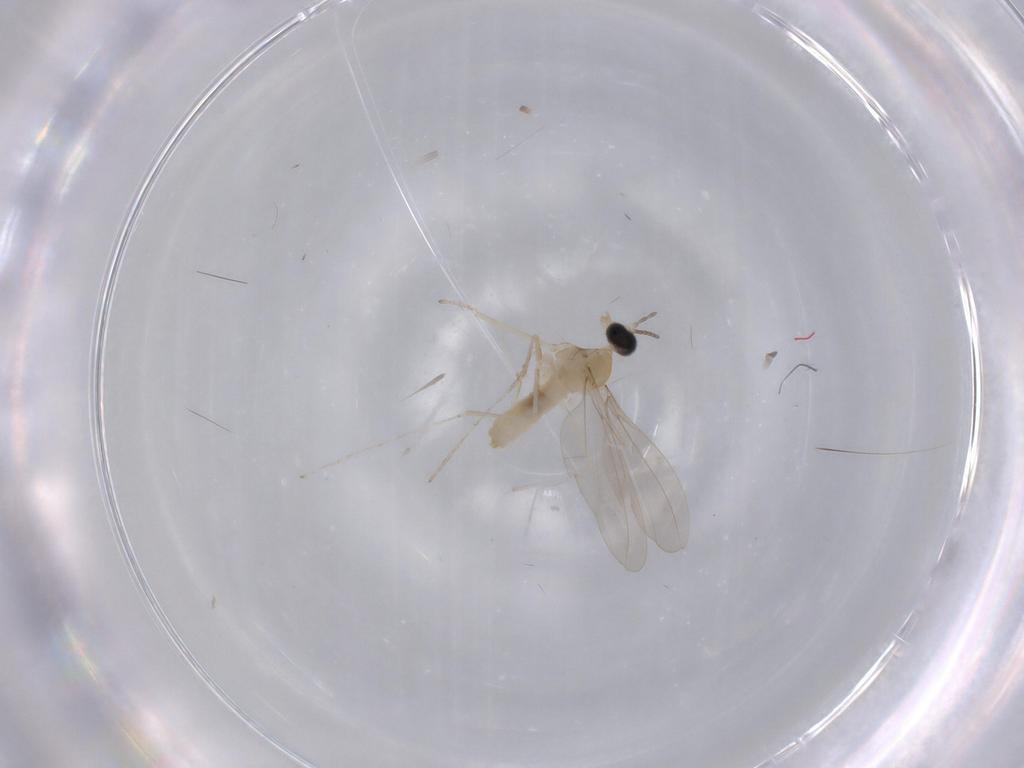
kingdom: Animalia
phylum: Arthropoda
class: Insecta
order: Diptera
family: Cecidomyiidae
